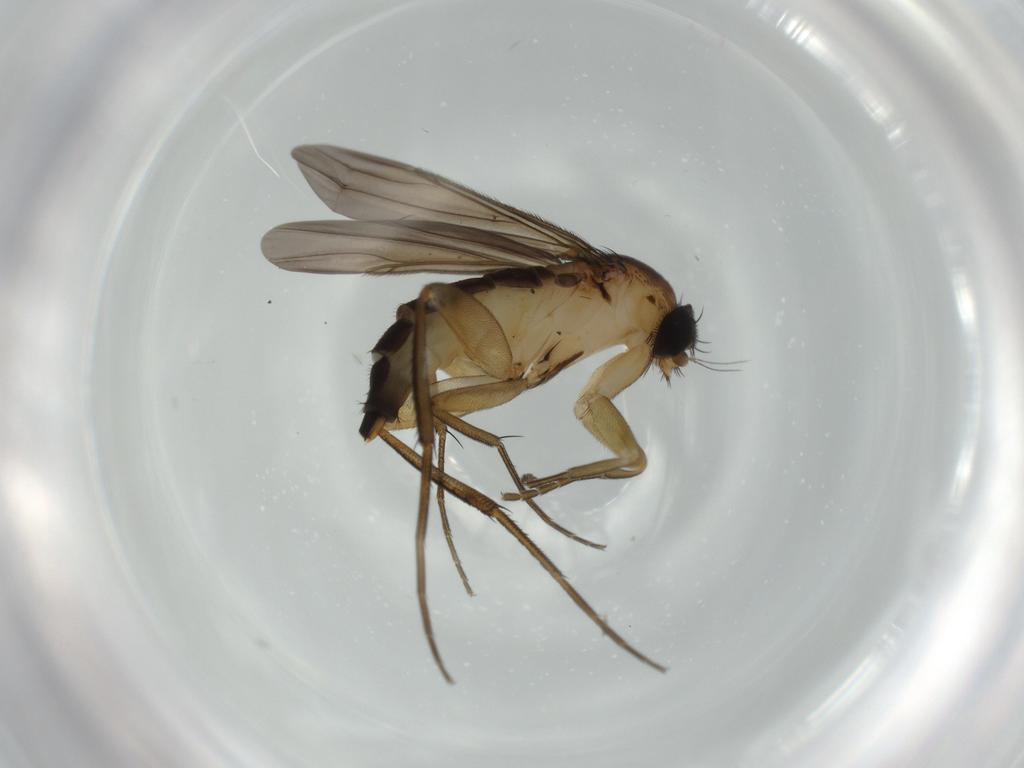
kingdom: Animalia
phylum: Arthropoda
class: Insecta
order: Diptera
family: Phoridae
